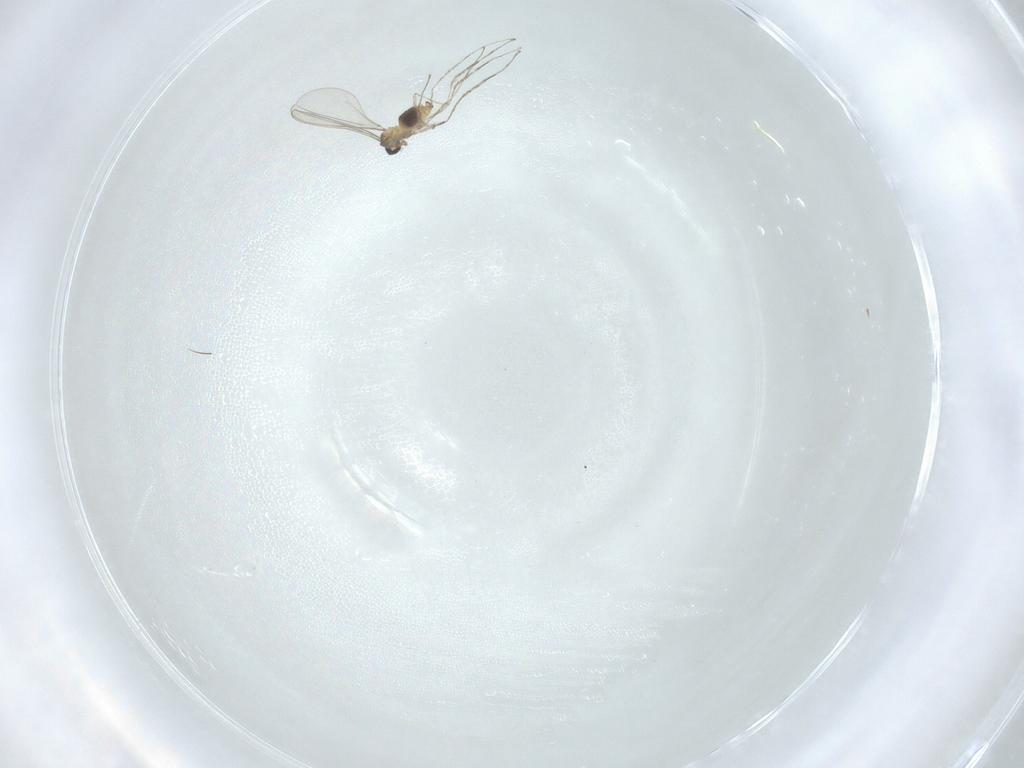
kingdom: Animalia
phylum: Arthropoda
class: Insecta
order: Diptera
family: Cecidomyiidae
